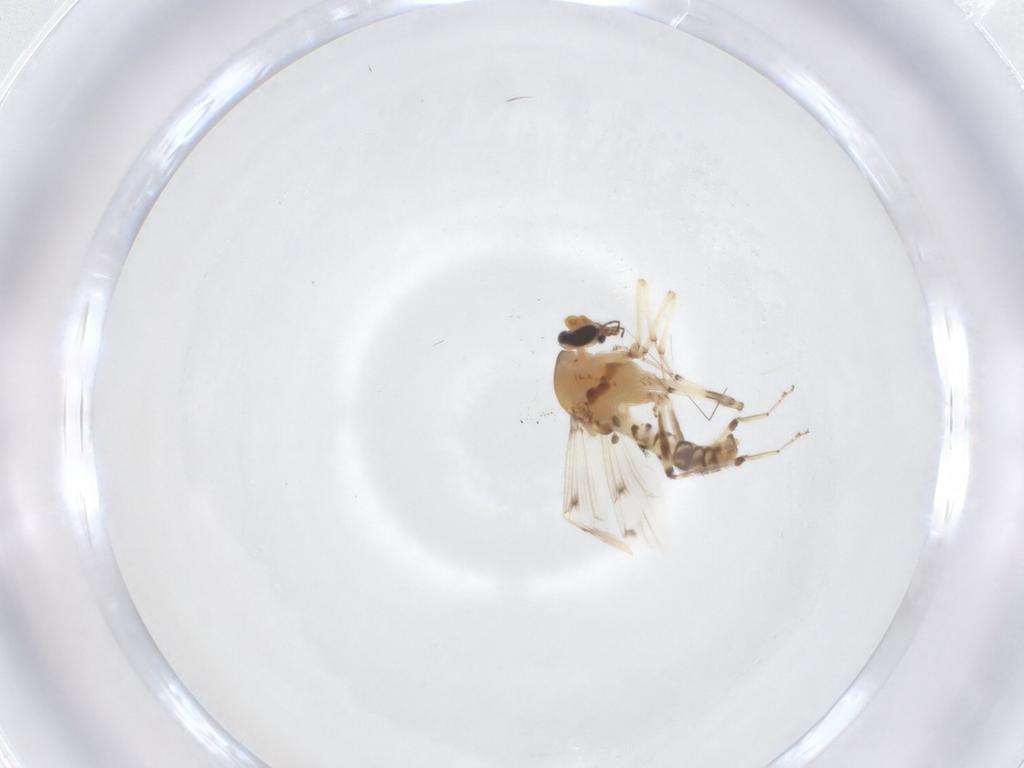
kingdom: Animalia
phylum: Arthropoda
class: Insecta
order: Diptera
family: Ceratopogonidae
